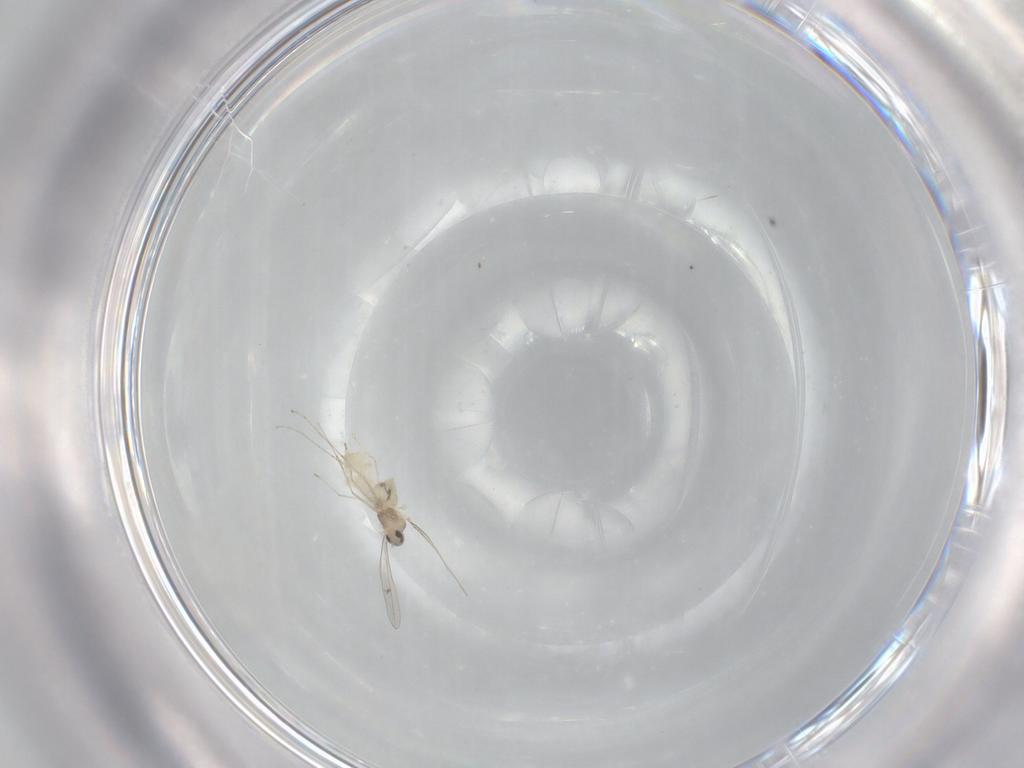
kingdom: Animalia
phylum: Arthropoda
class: Insecta
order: Diptera
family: Cecidomyiidae
